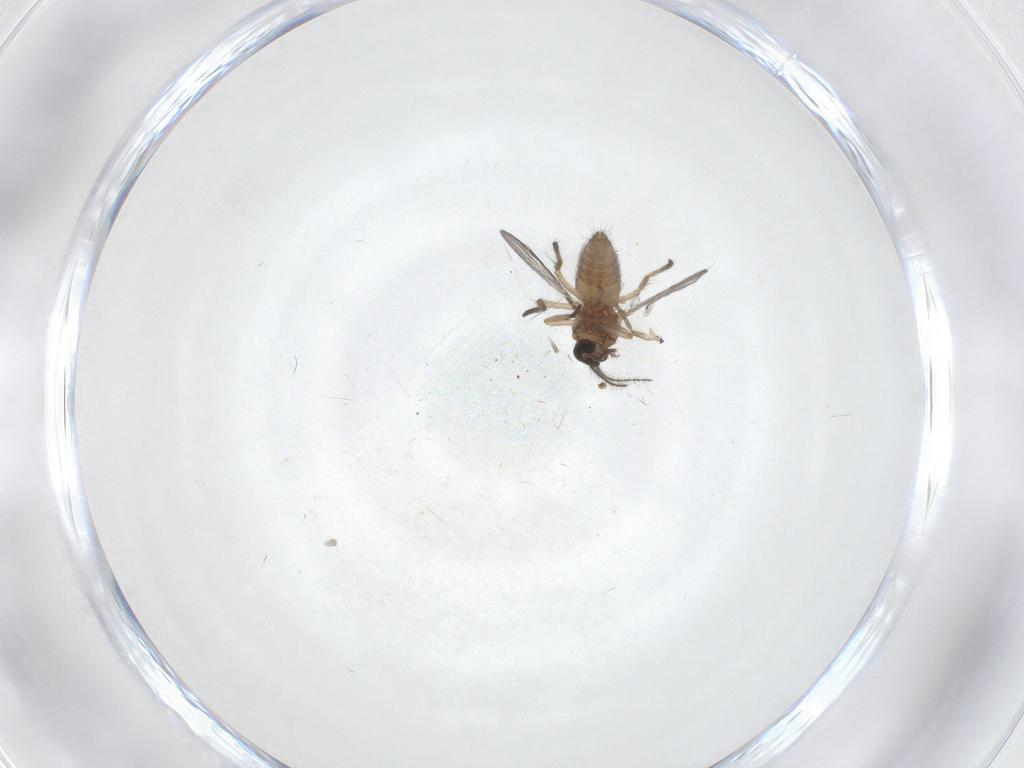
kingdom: Animalia
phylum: Arthropoda
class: Insecta
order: Diptera
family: Ceratopogonidae
